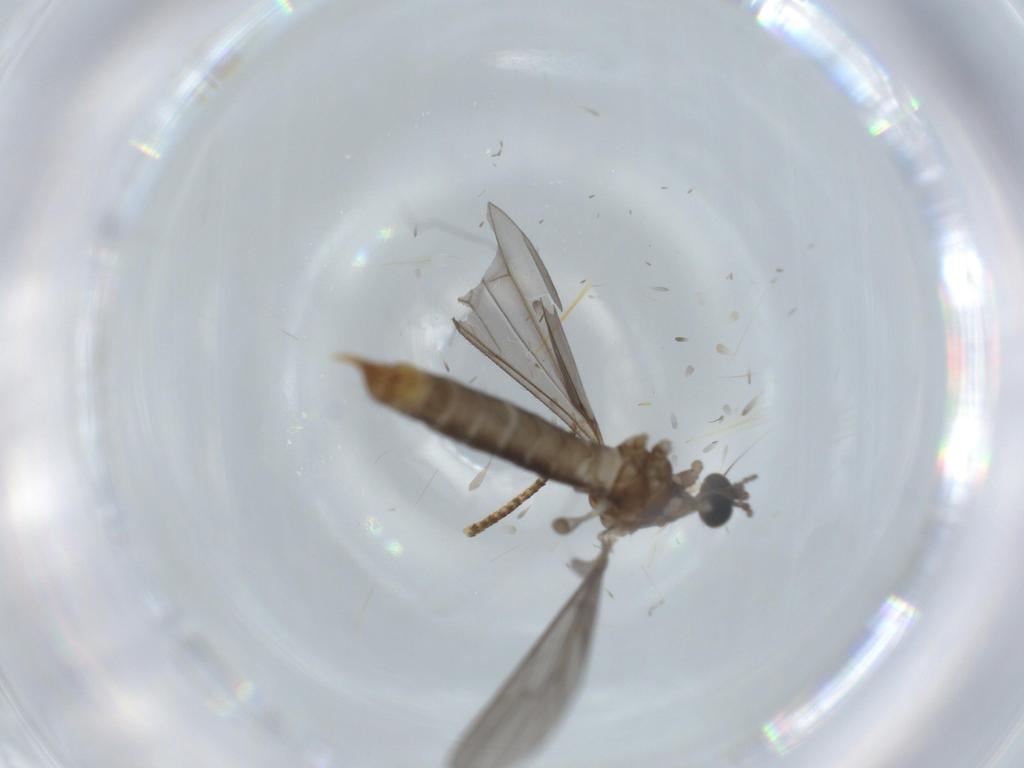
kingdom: Animalia
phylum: Arthropoda
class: Insecta
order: Diptera
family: Limoniidae
